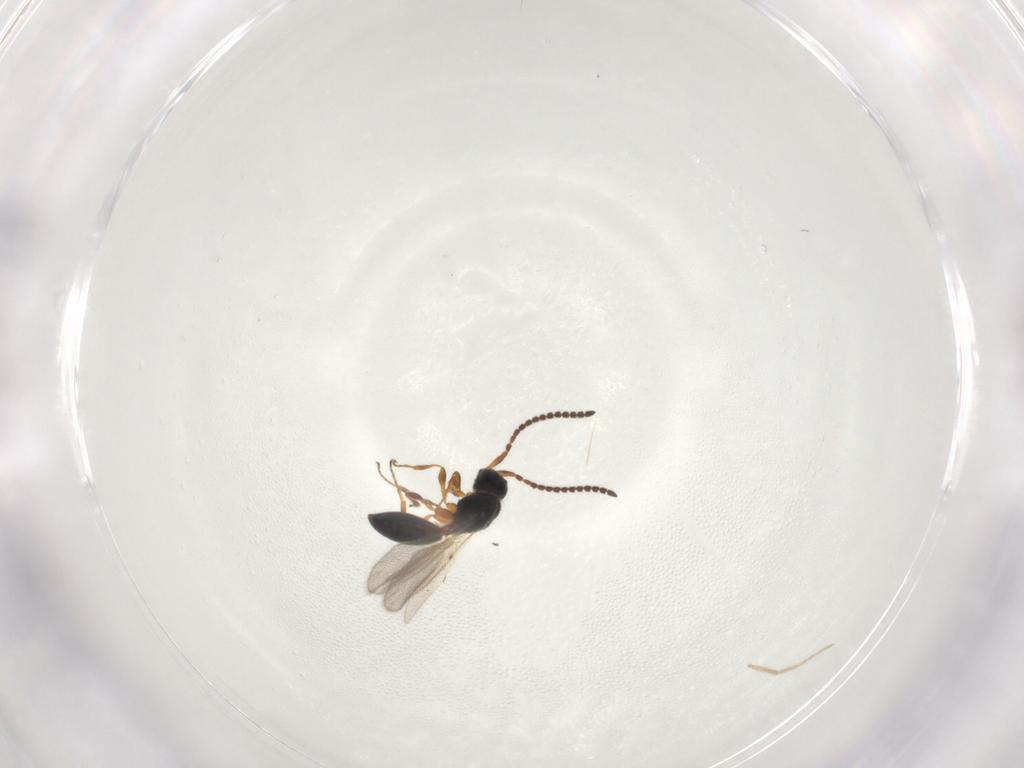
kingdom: Animalia
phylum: Arthropoda
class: Insecta
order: Hymenoptera
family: Diapriidae
